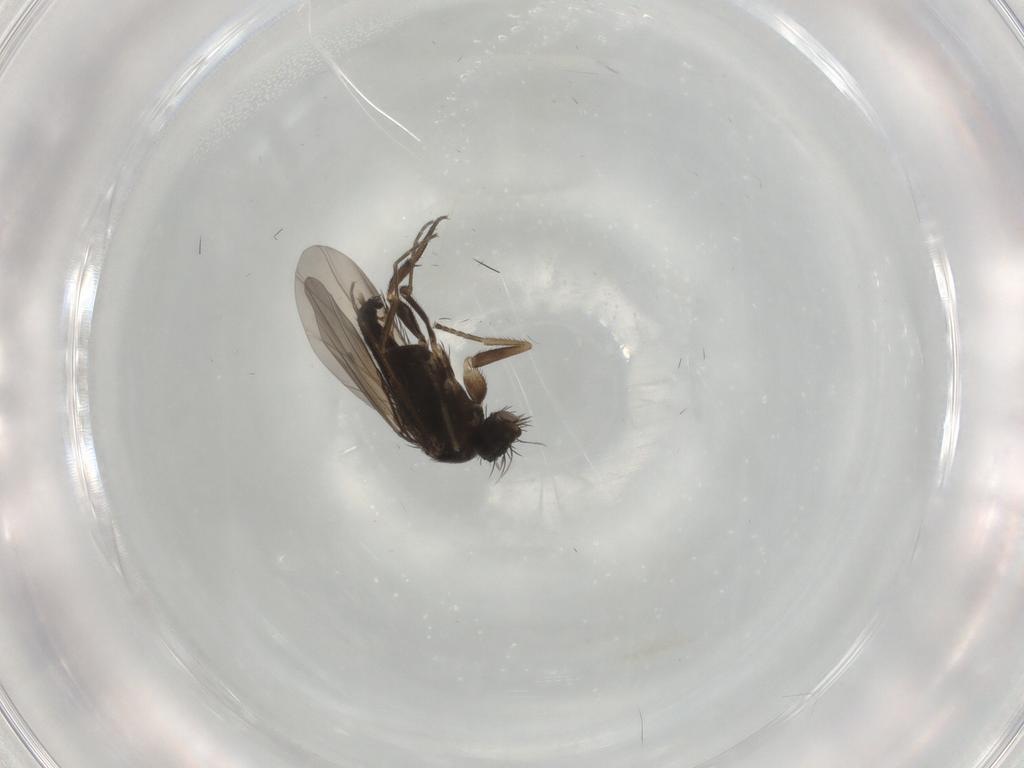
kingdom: Animalia
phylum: Arthropoda
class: Insecta
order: Diptera
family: Phoridae
